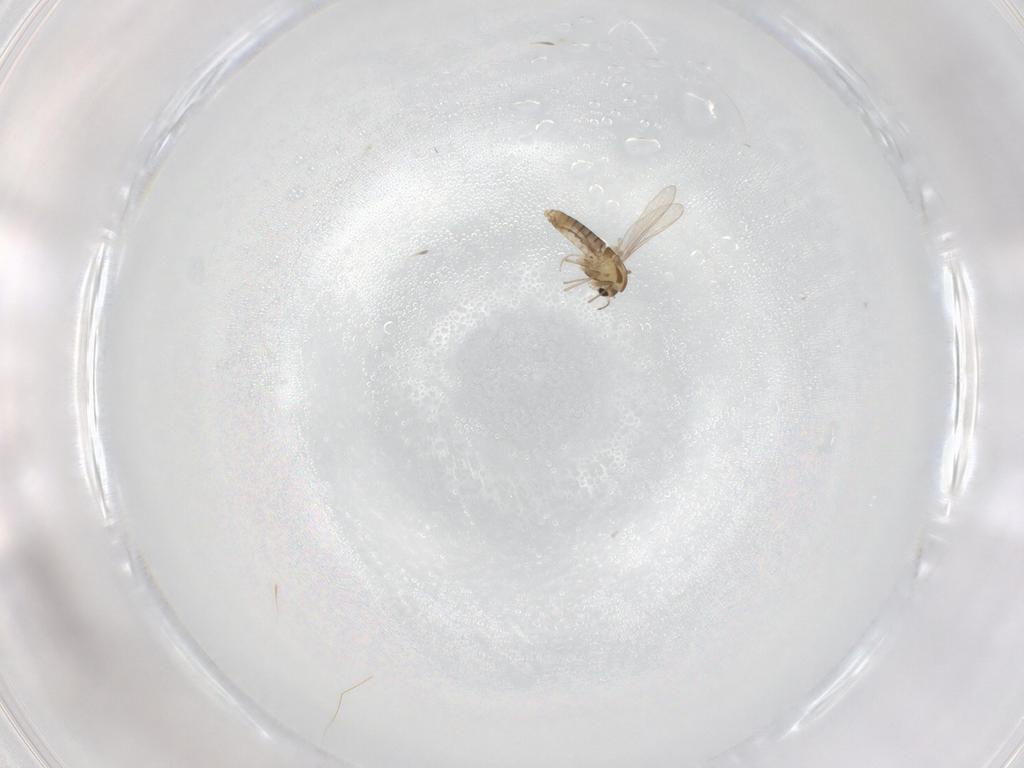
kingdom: Animalia
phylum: Arthropoda
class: Insecta
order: Diptera
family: Chironomidae
